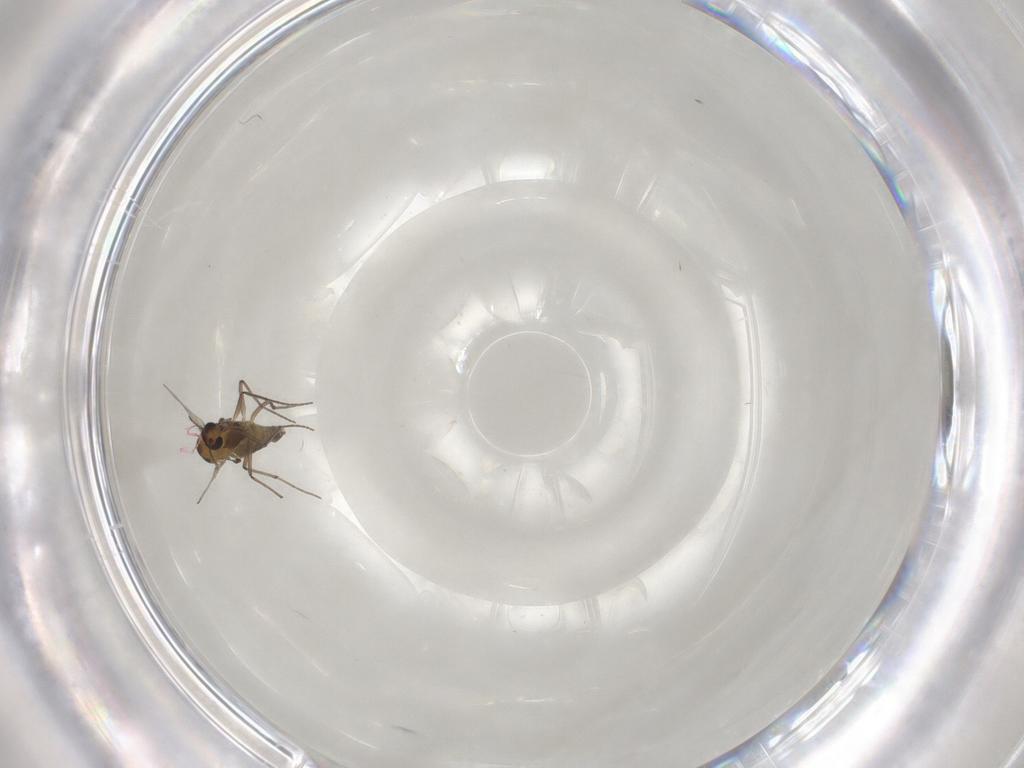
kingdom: Animalia
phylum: Arthropoda
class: Insecta
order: Diptera
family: Chironomidae
